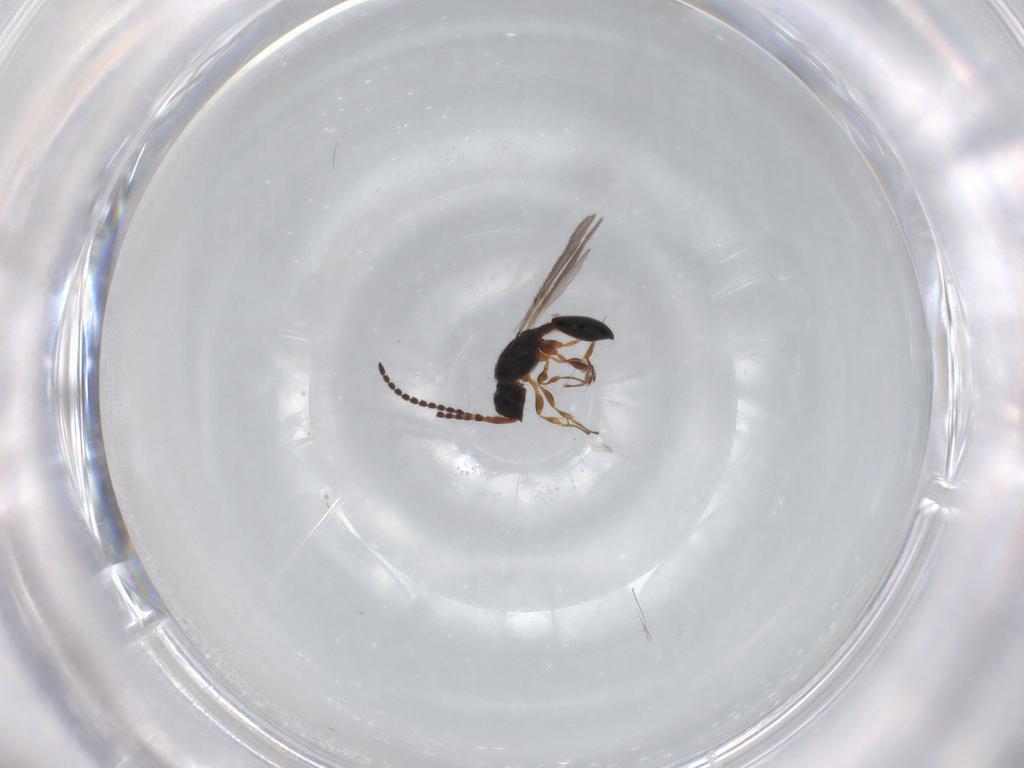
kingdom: Animalia
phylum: Arthropoda
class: Insecta
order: Hymenoptera
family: Diapriidae
